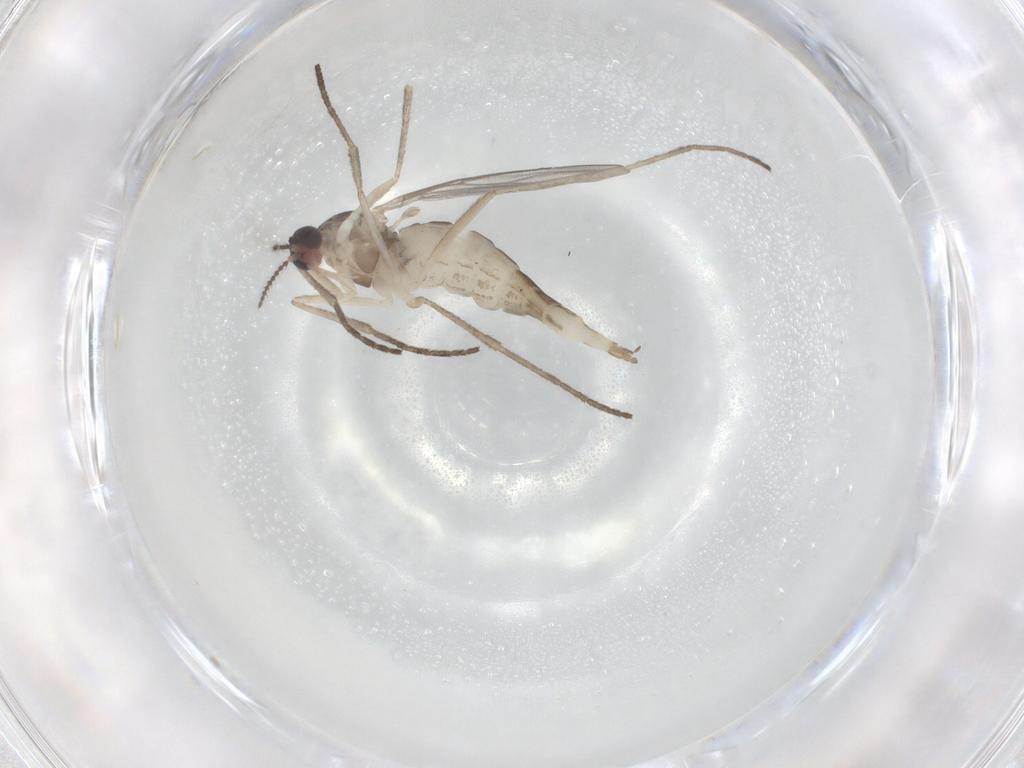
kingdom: Animalia
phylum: Arthropoda
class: Insecta
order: Diptera
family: Cecidomyiidae
